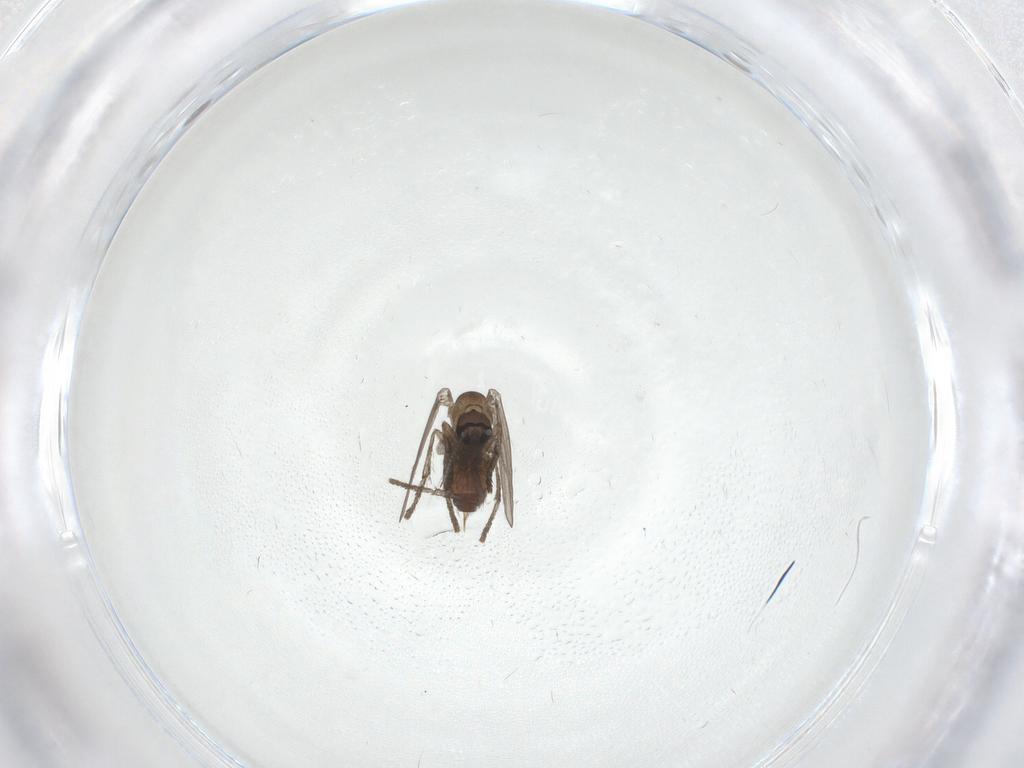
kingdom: Animalia
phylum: Arthropoda
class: Insecta
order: Diptera
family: Psychodidae
